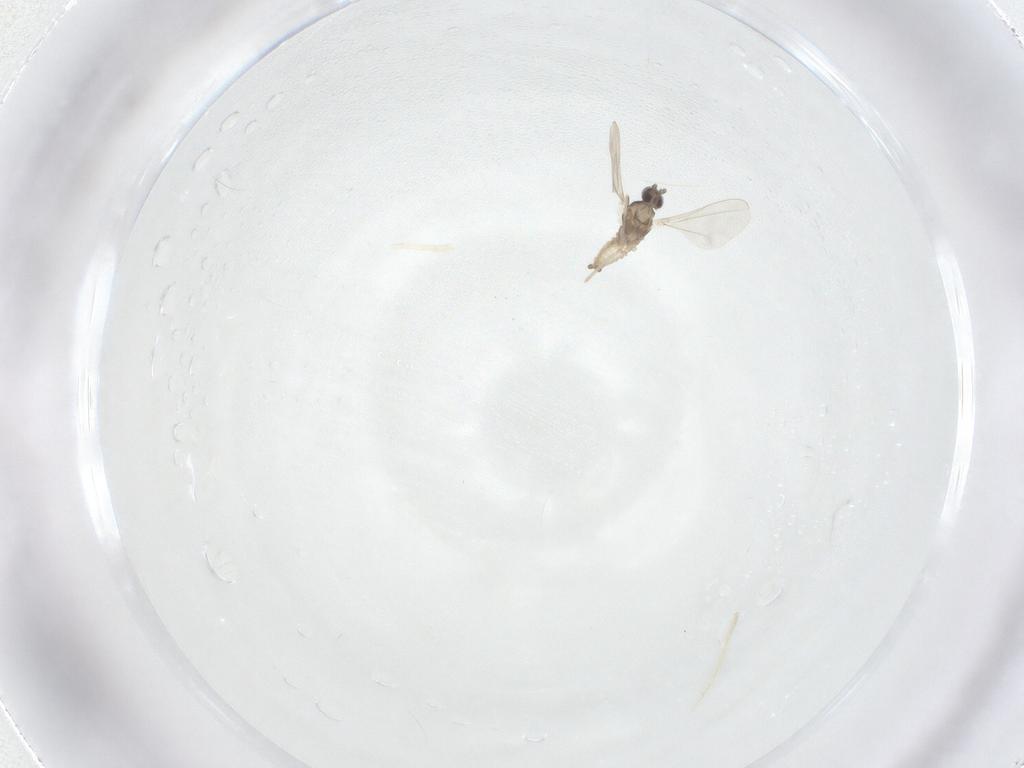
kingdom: Animalia
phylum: Arthropoda
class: Insecta
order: Diptera
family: Cecidomyiidae
